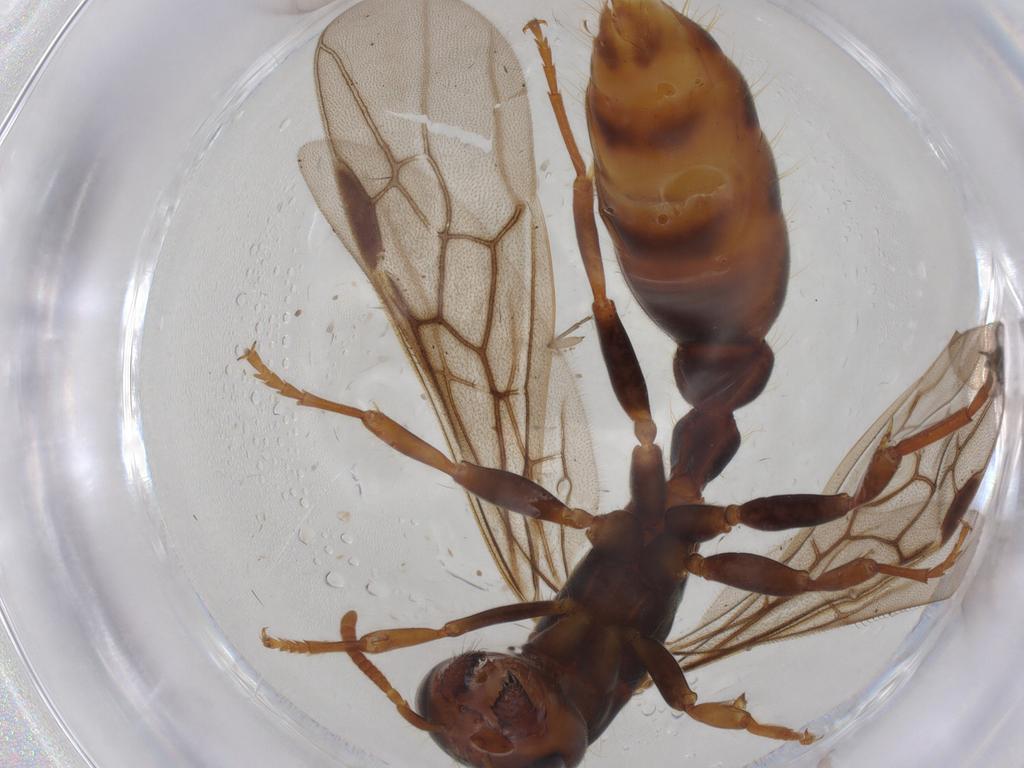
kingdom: Animalia
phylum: Arthropoda
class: Insecta
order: Hymenoptera
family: Formicidae
